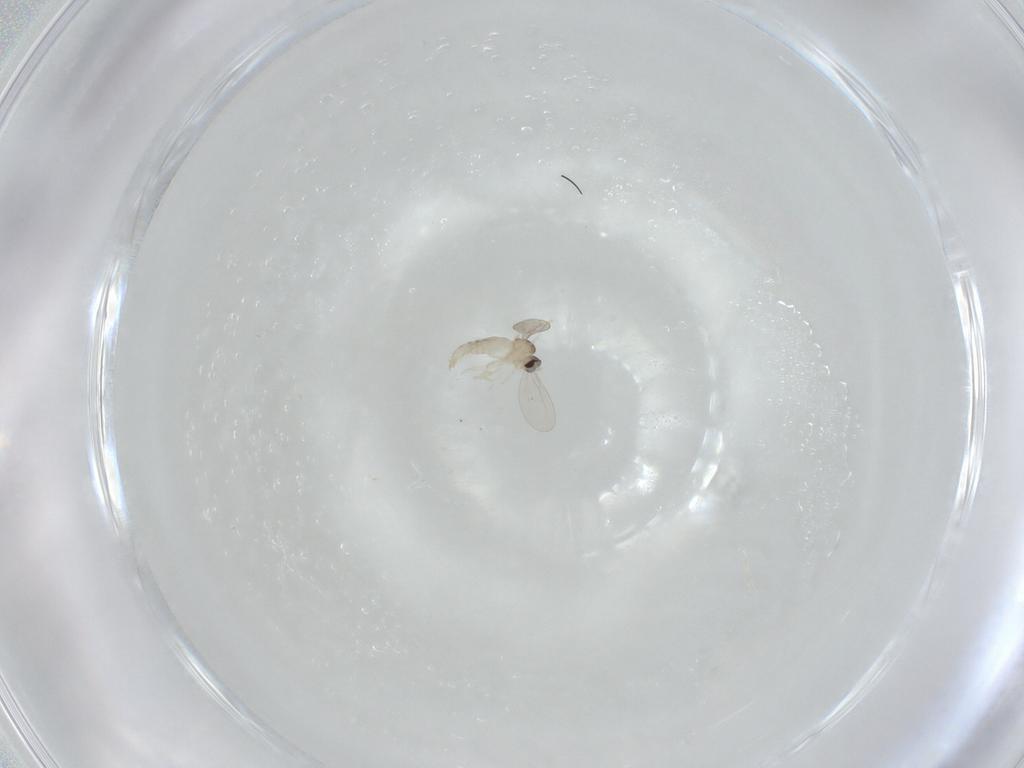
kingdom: Animalia
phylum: Arthropoda
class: Insecta
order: Diptera
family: Cecidomyiidae
